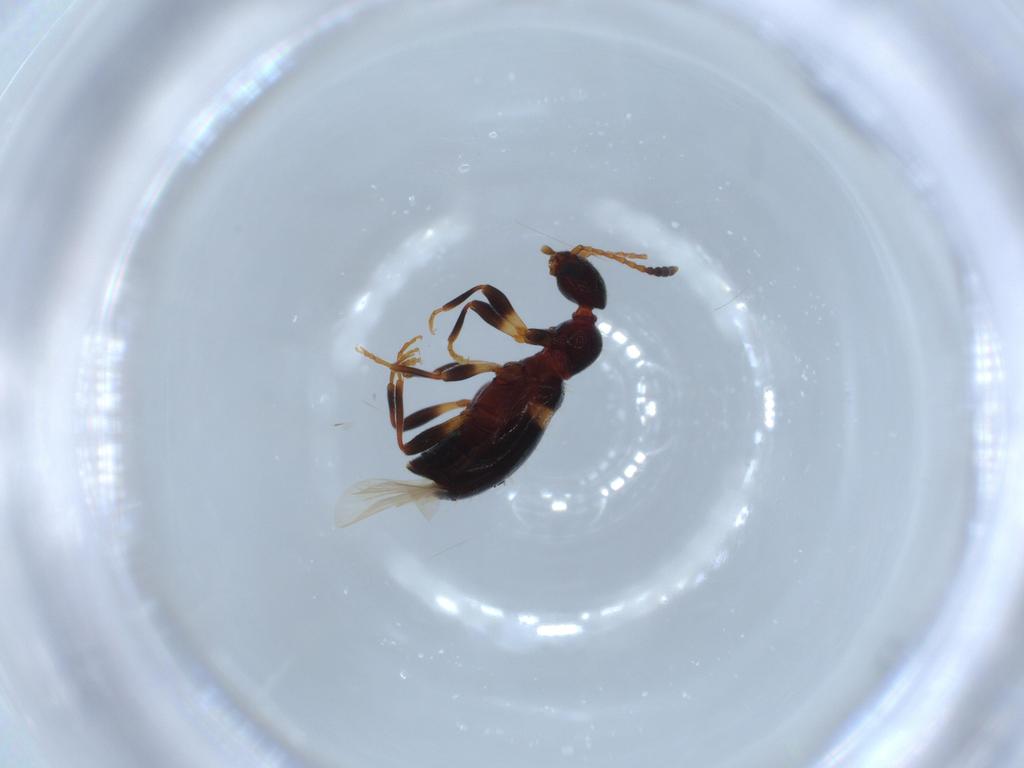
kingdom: Animalia
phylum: Arthropoda
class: Insecta
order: Coleoptera
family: Anthicidae
